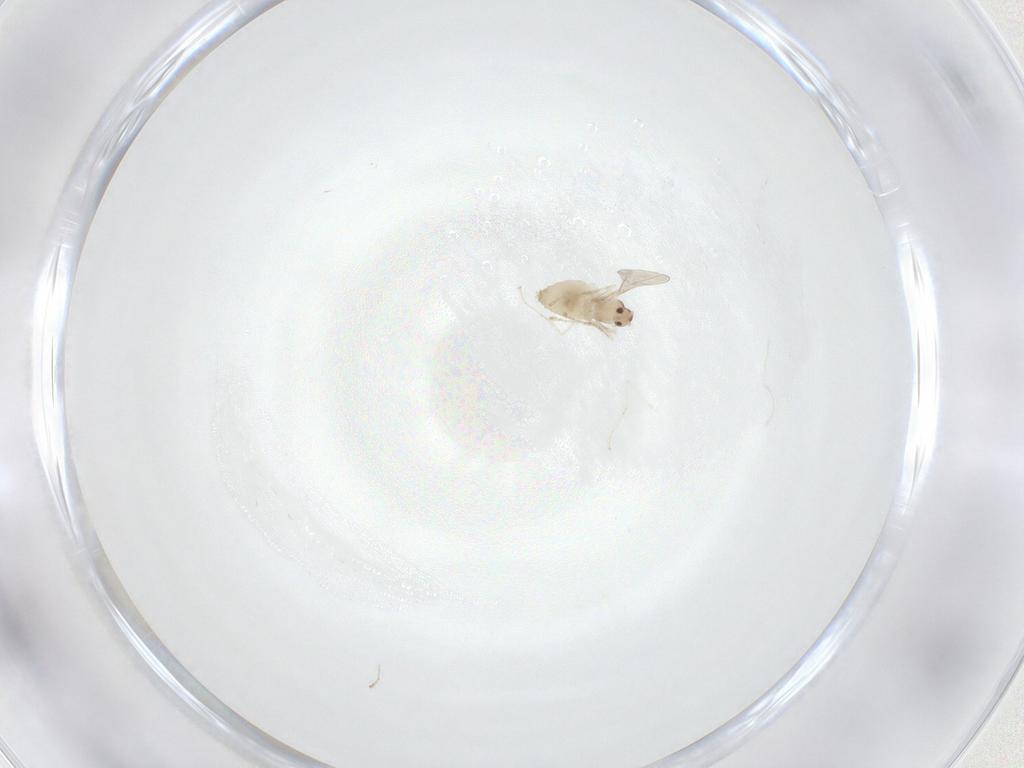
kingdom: Animalia
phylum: Arthropoda
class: Insecta
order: Diptera
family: Cecidomyiidae
